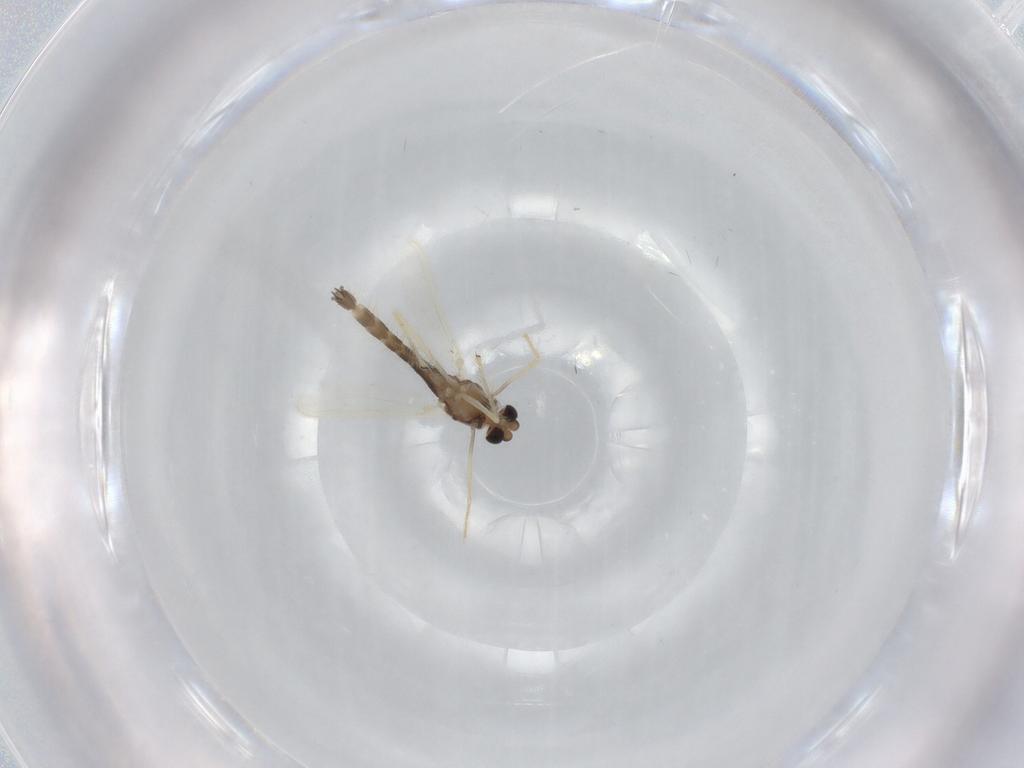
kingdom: Animalia
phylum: Arthropoda
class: Insecta
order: Diptera
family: Chironomidae
